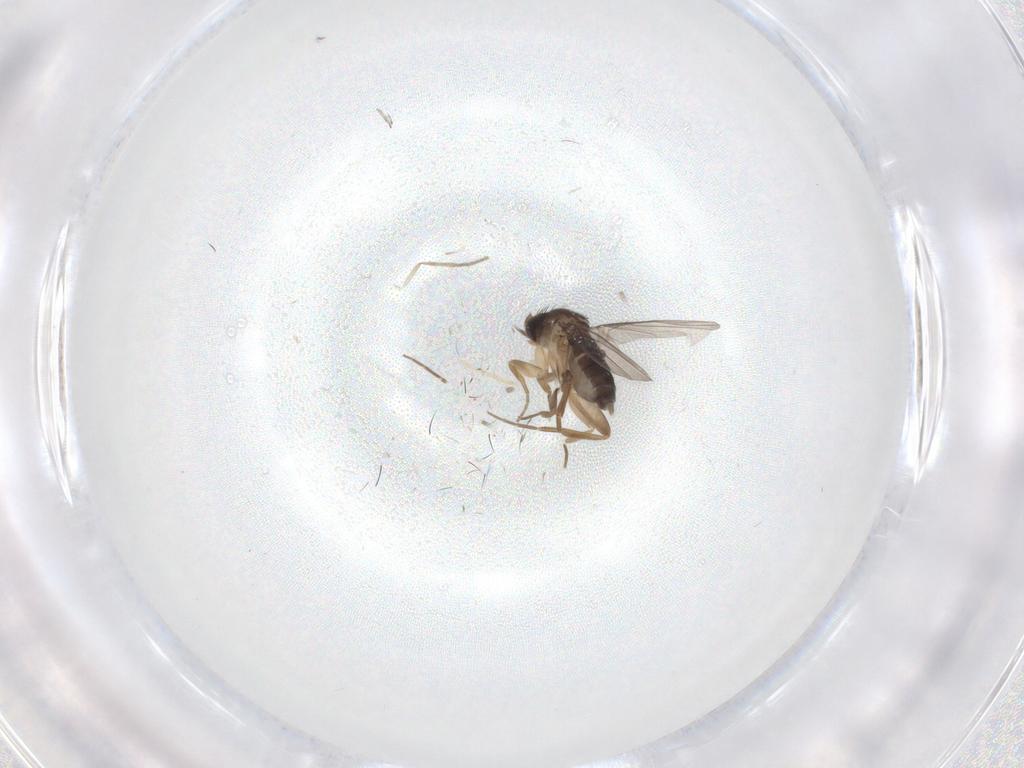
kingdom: Animalia
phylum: Arthropoda
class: Insecta
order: Diptera
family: Phoridae
